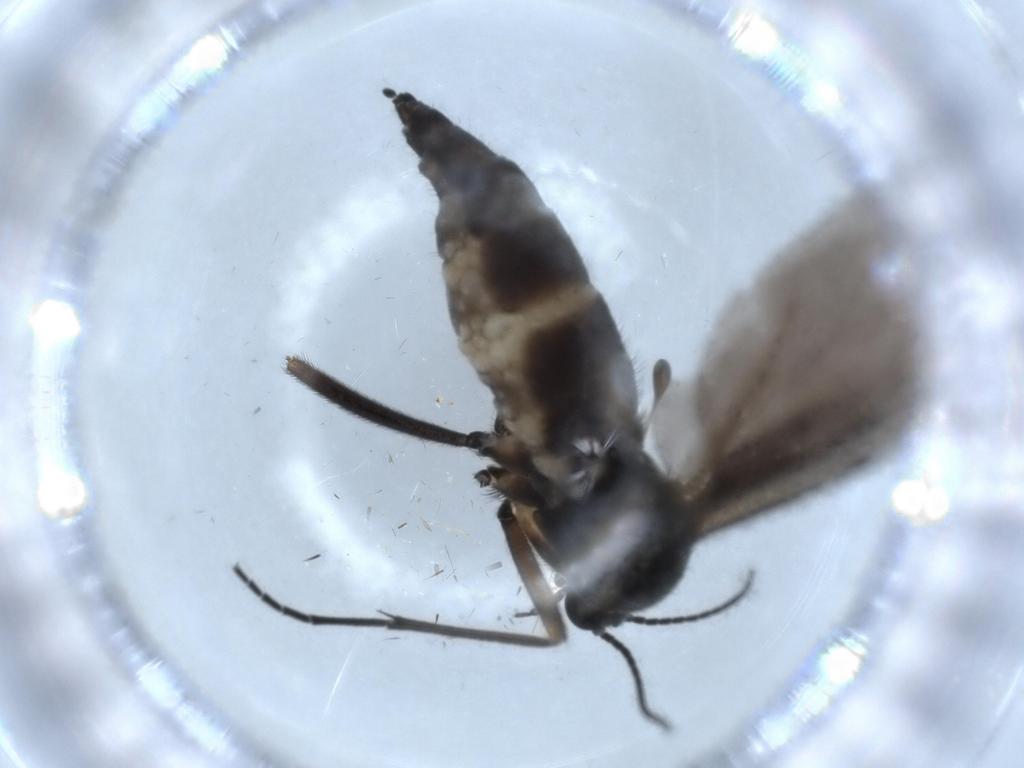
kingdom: Animalia
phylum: Arthropoda
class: Insecta
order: Diptera
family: Sciaridae
